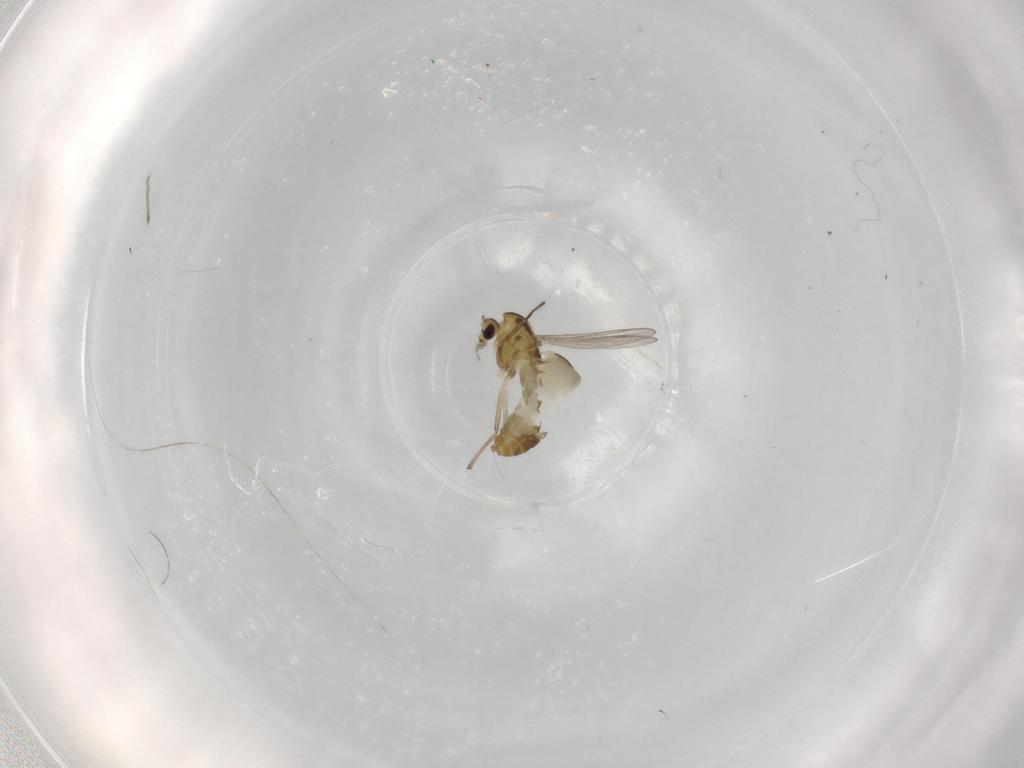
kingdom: Animalia
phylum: Arthropoda
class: Insecta
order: Diptera
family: Chironomidae
